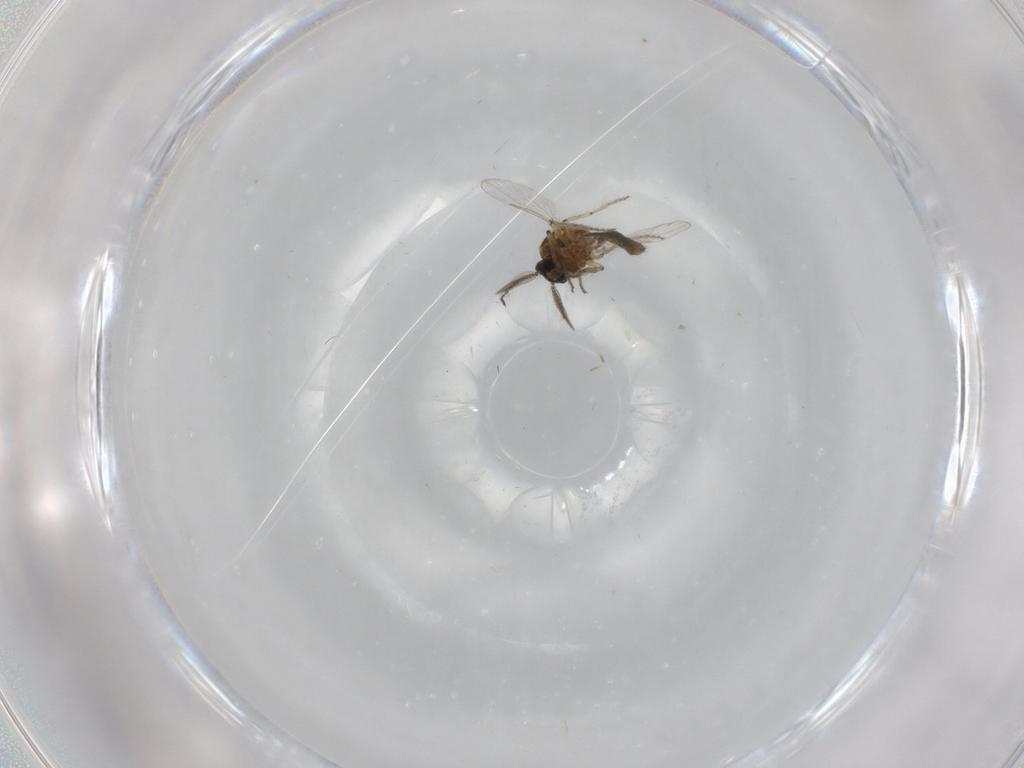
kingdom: Animalia
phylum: Arthropoda
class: Insecta
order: Diptera
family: Ceratopogonidae
